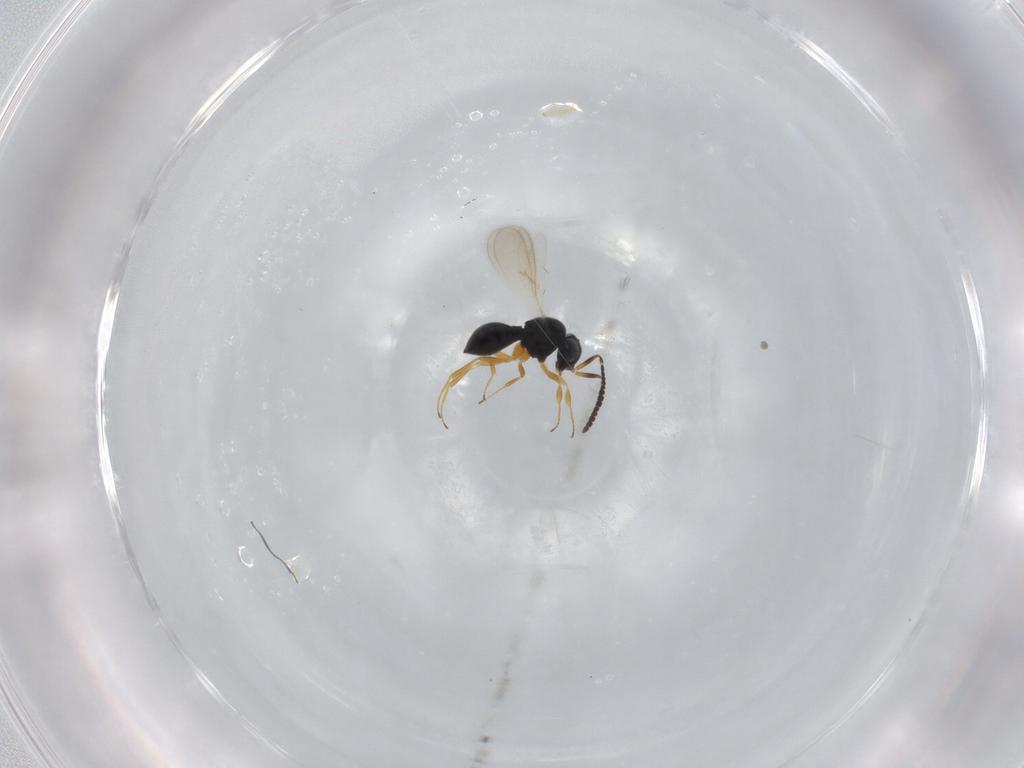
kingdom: Animalia
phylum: Arthropoda
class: Insecta
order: Hymenoptera
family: Scelionidae
